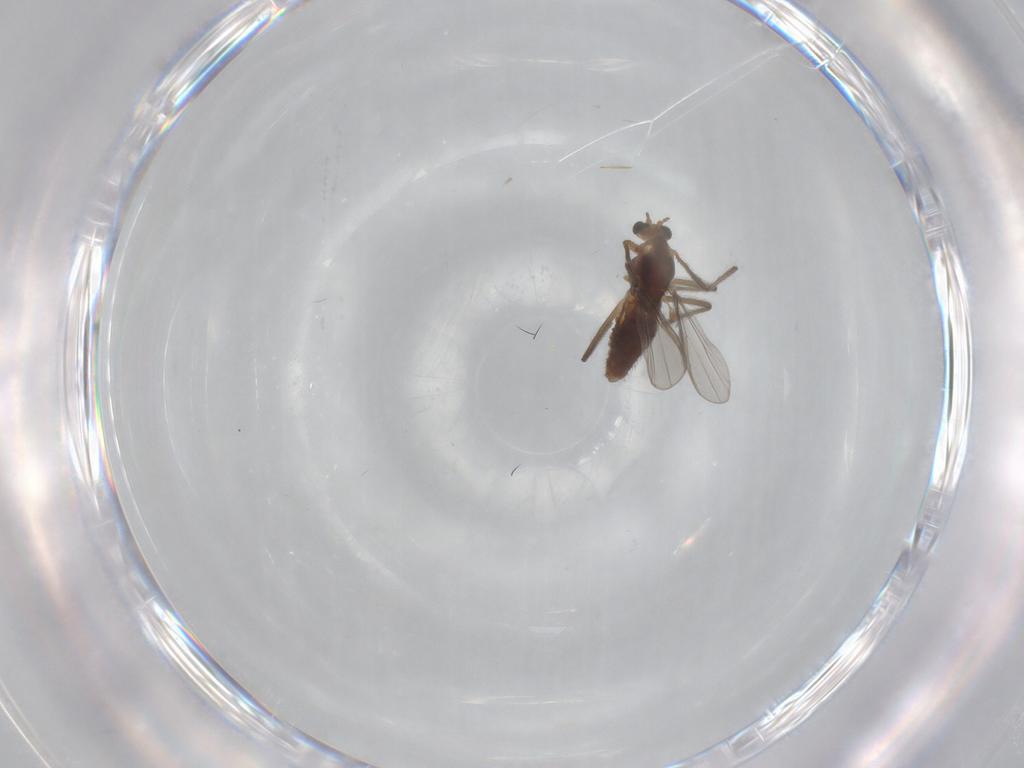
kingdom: Animalia
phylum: Arthropoda
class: Insecta
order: Diptera
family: Chironomidae
